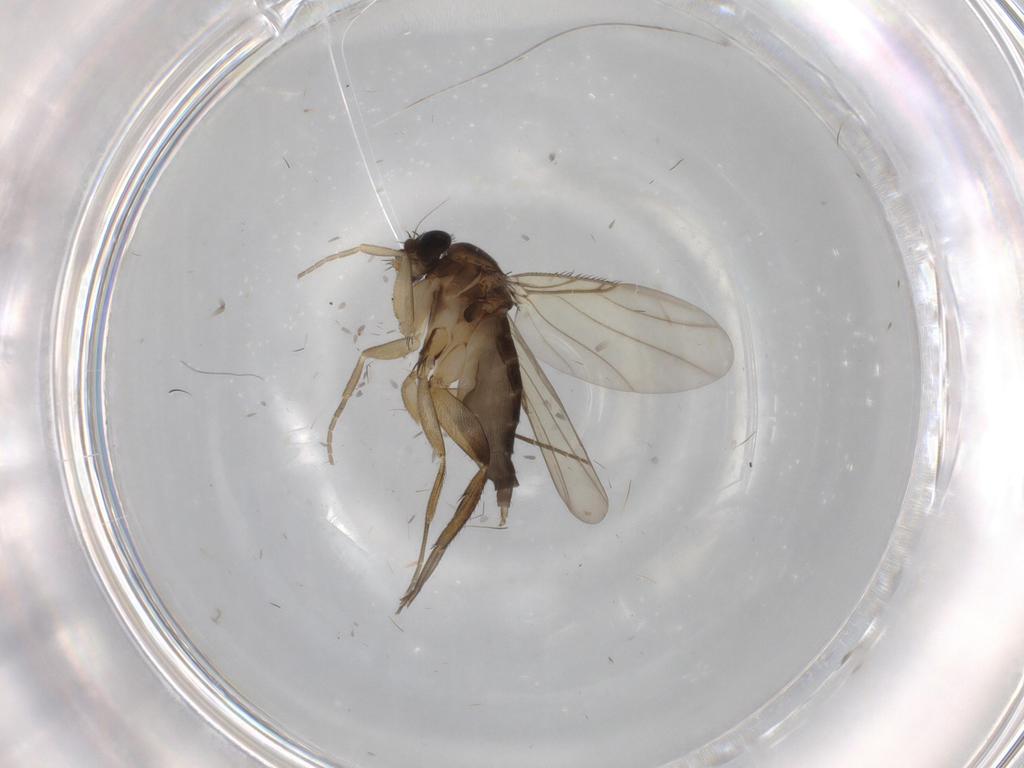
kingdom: Animalia
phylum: Arthropoda
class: Insecta
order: Diptera
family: Phoridae
